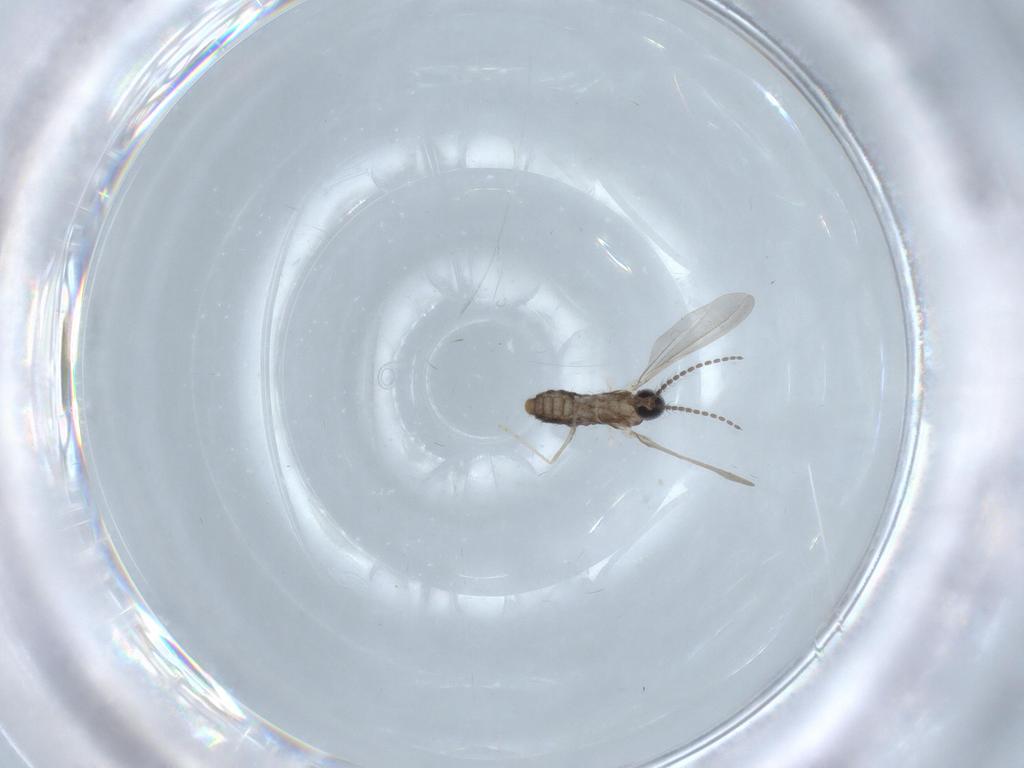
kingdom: Animalia
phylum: Arthropoda
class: Insecta
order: Diptera
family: Cecidomyiidae
